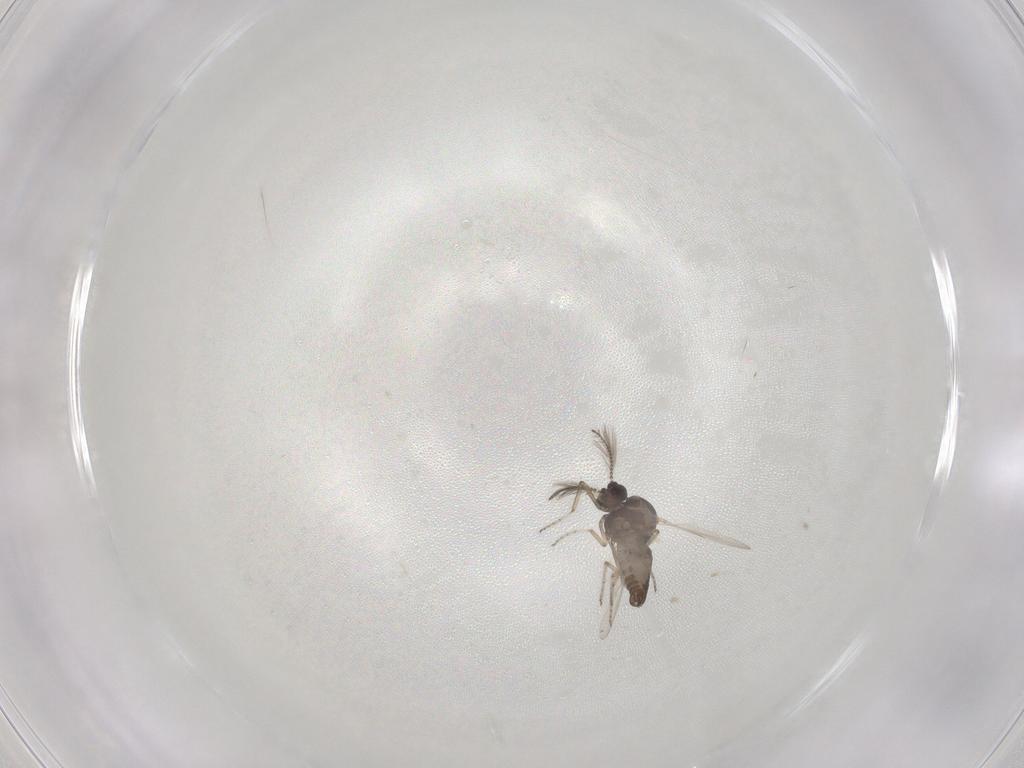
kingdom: Animalia
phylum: Arthropoda
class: Insecta
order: Diptera
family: Ceratopogonidae
